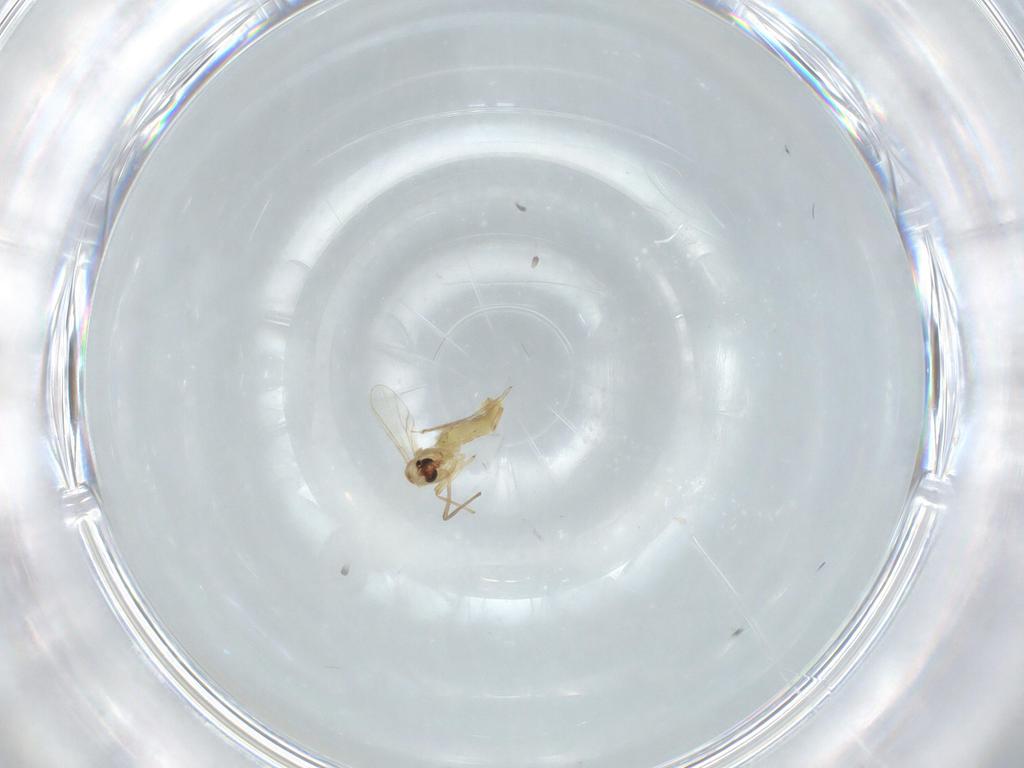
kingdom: Animalia
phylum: Arthropoda
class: Insecta
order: Diptera
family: Chironomidae
